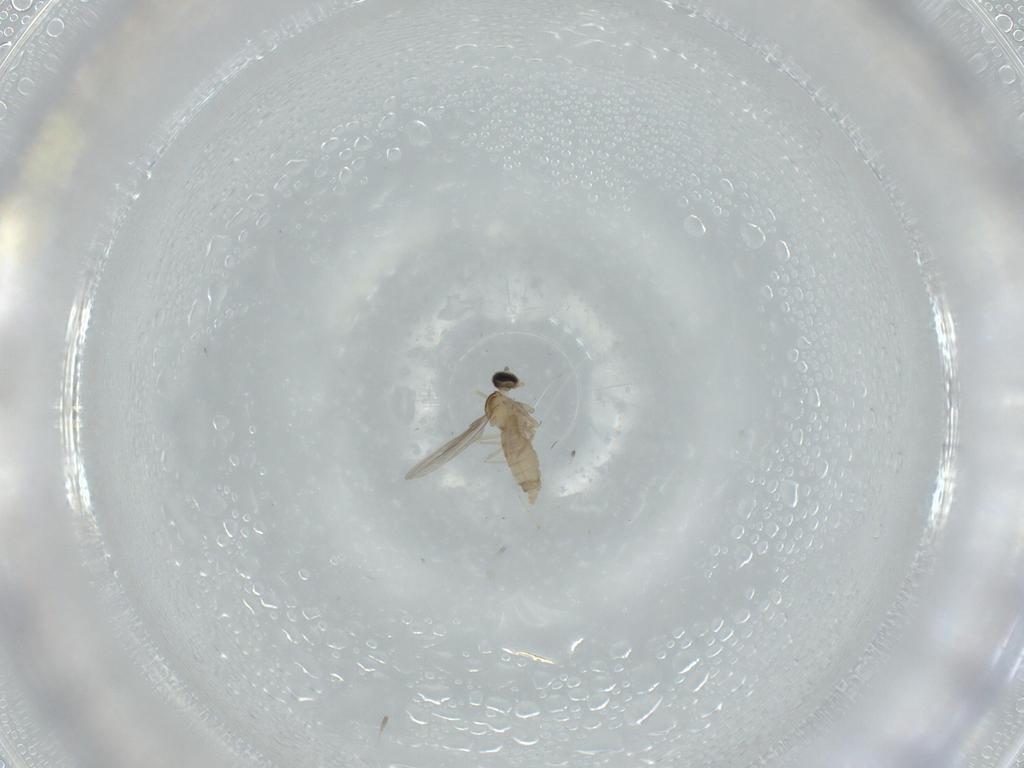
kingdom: Animalia
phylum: Arthropoda
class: Insecta
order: Diptera
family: Cecidomyiidae
